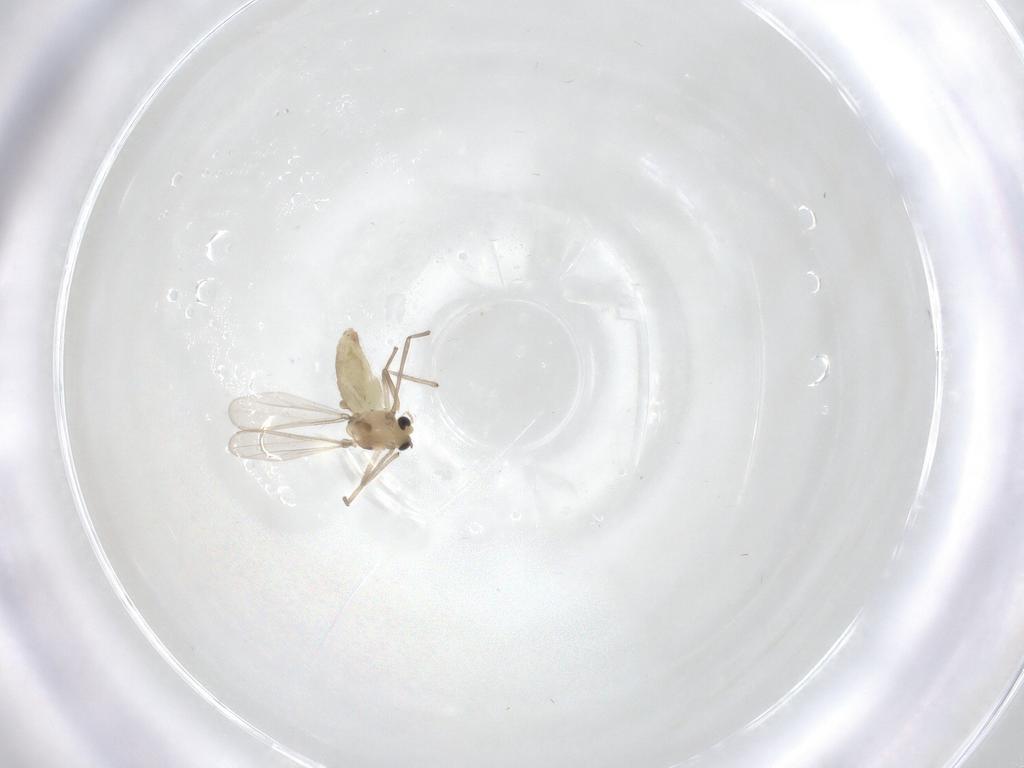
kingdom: Animalia
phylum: Arthropoda
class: Insecta
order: Diptera
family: Chironomidae
